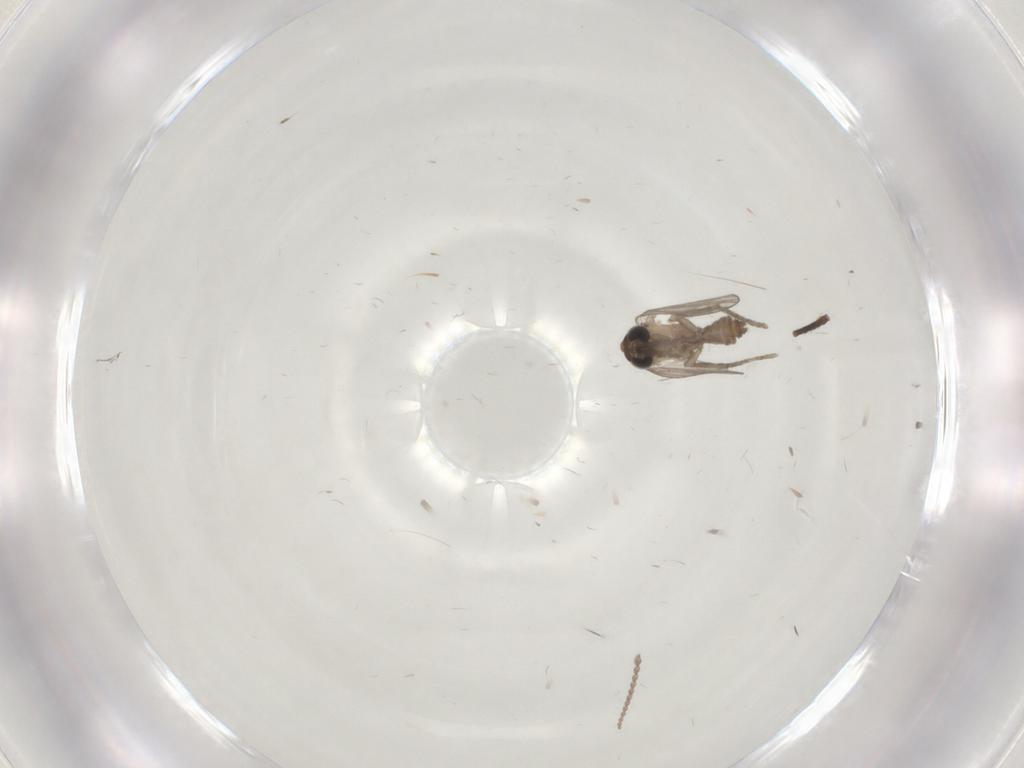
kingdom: Animalia
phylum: Arthropoda
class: Insecta
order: Diptera
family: Cecidomyiidae
